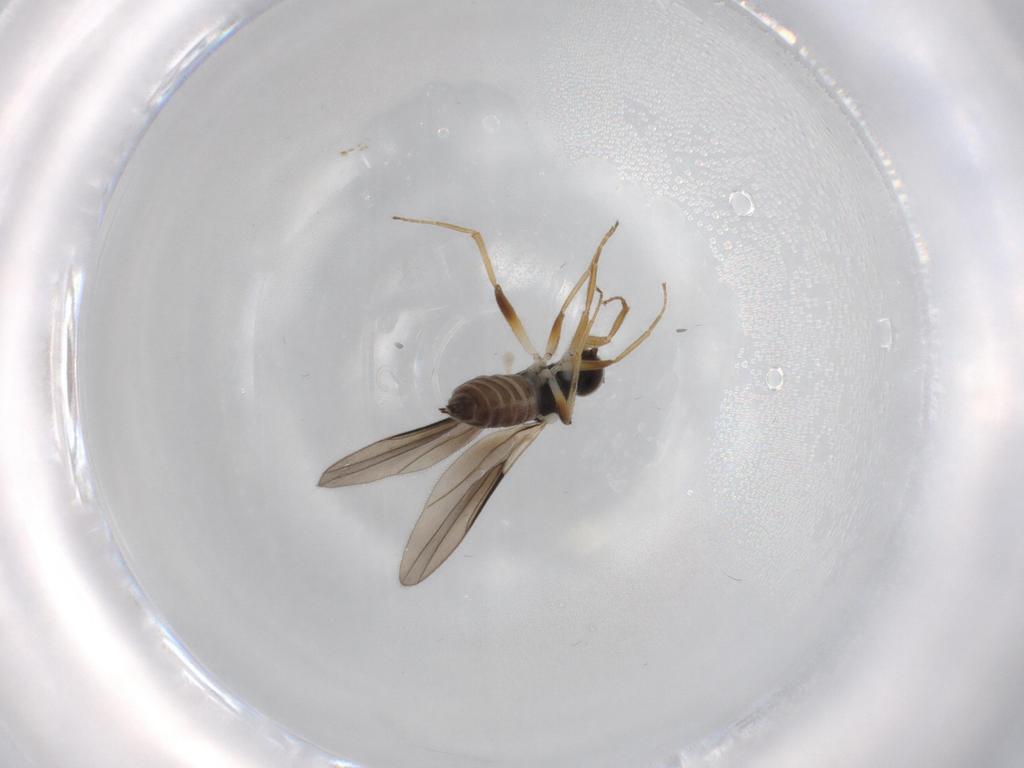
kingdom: Animalia
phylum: Arthropoda
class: Insecta
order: Diptera
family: Hybotidae
